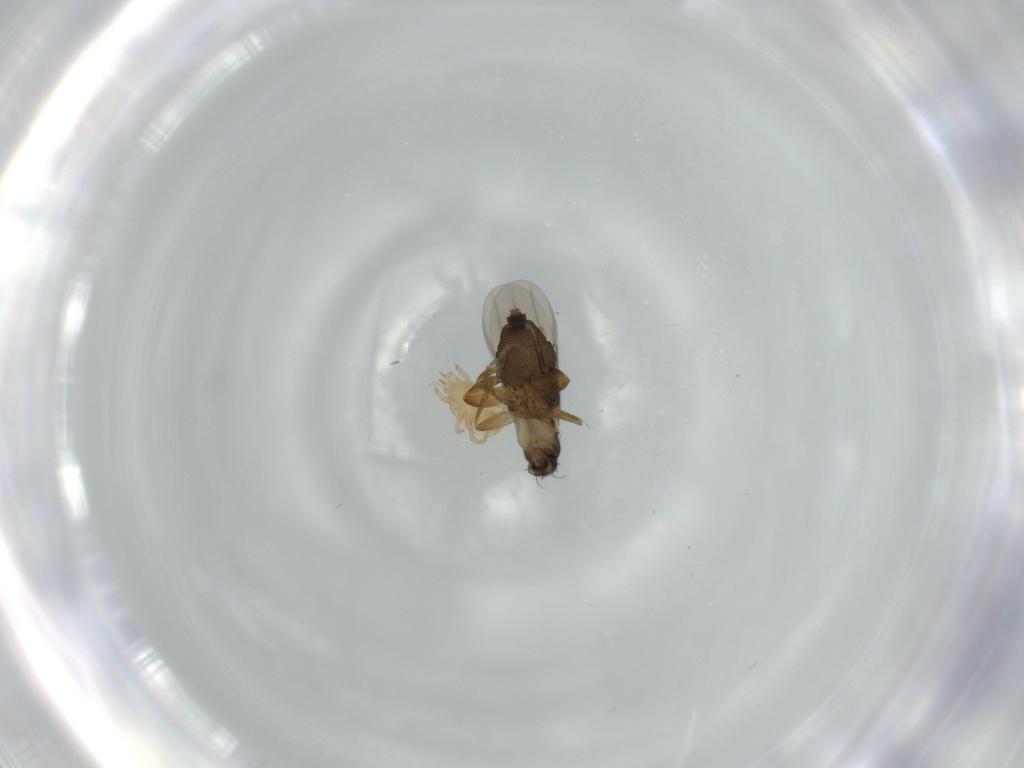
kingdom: Animalia
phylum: Arthropoda
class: Insecta
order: Diptera
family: Phoridae
